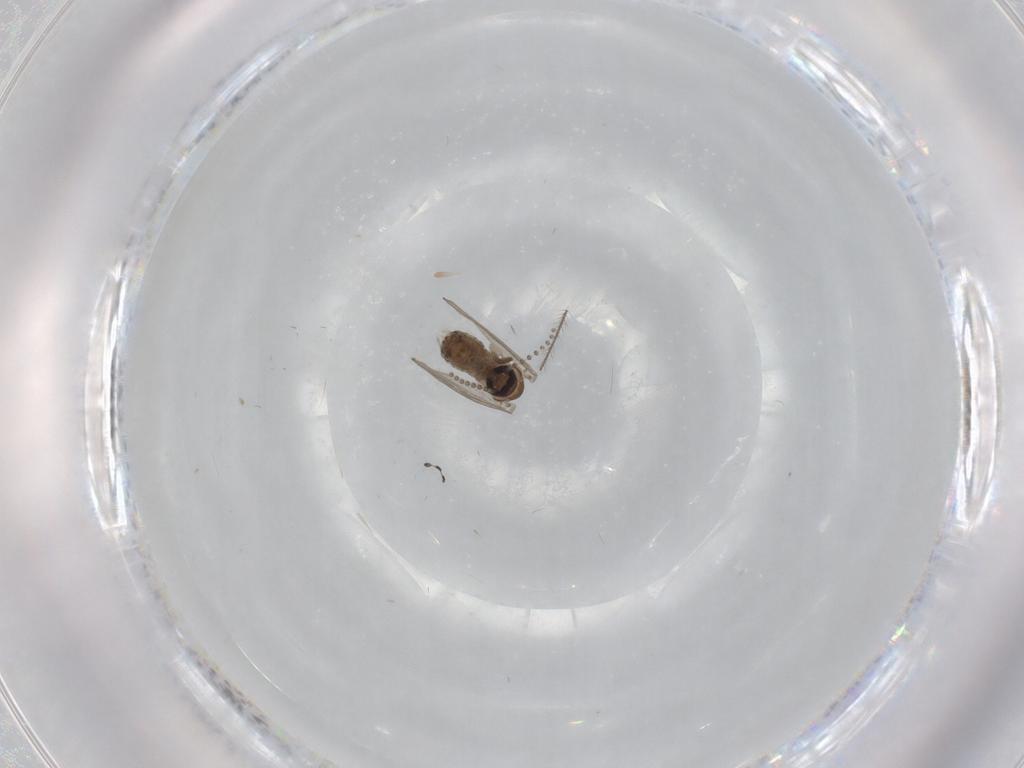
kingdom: Animalia
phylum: Arthropoda
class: Insecta
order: Diptera
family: Psychodidae
